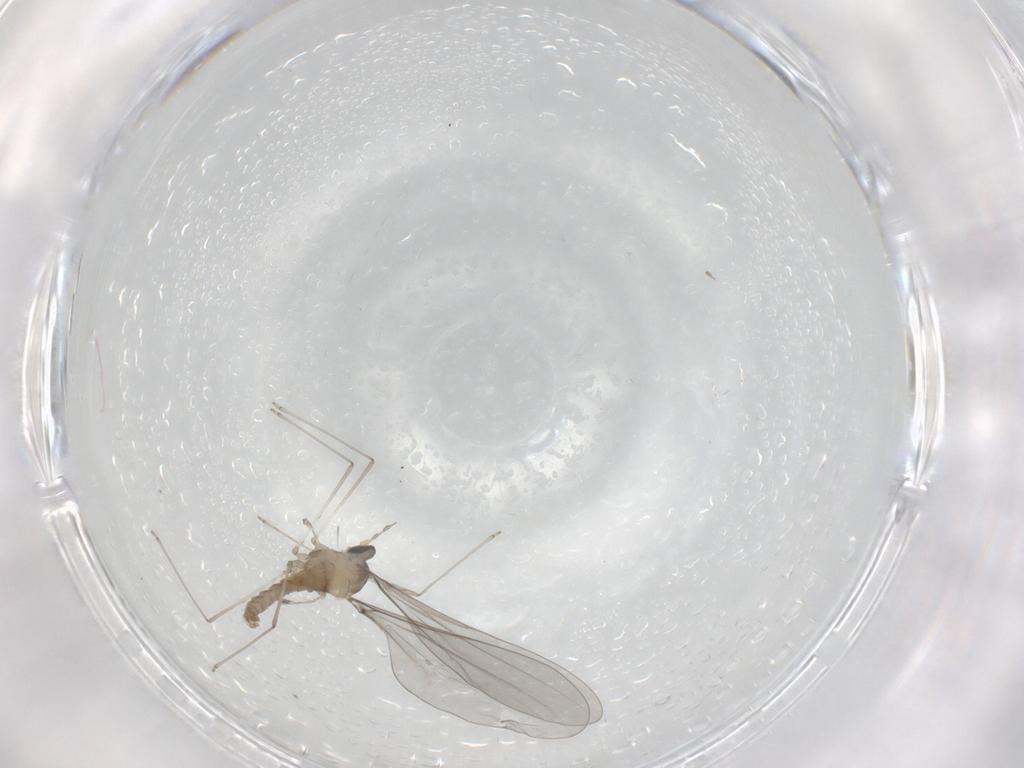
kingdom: Animalia
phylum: Arthropoda
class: Insecta
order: Diptera
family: Cecidomyiidae
